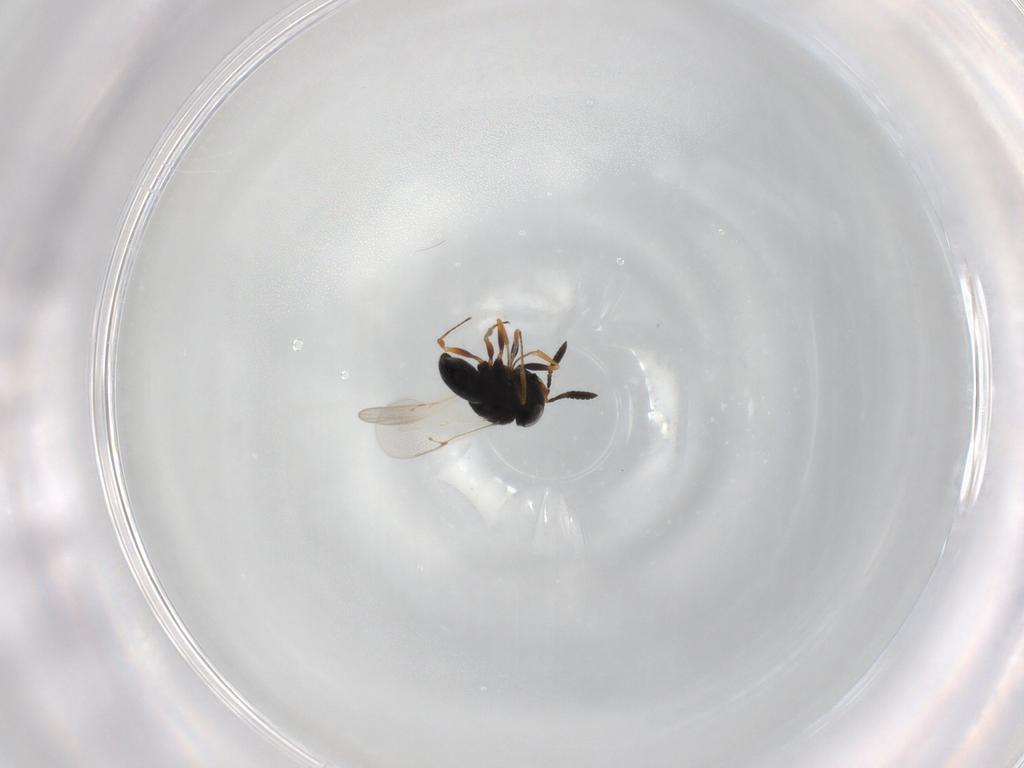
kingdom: Animalia
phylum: Arthropoda
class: Insecta
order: Hymenoptera
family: Scelionidae
